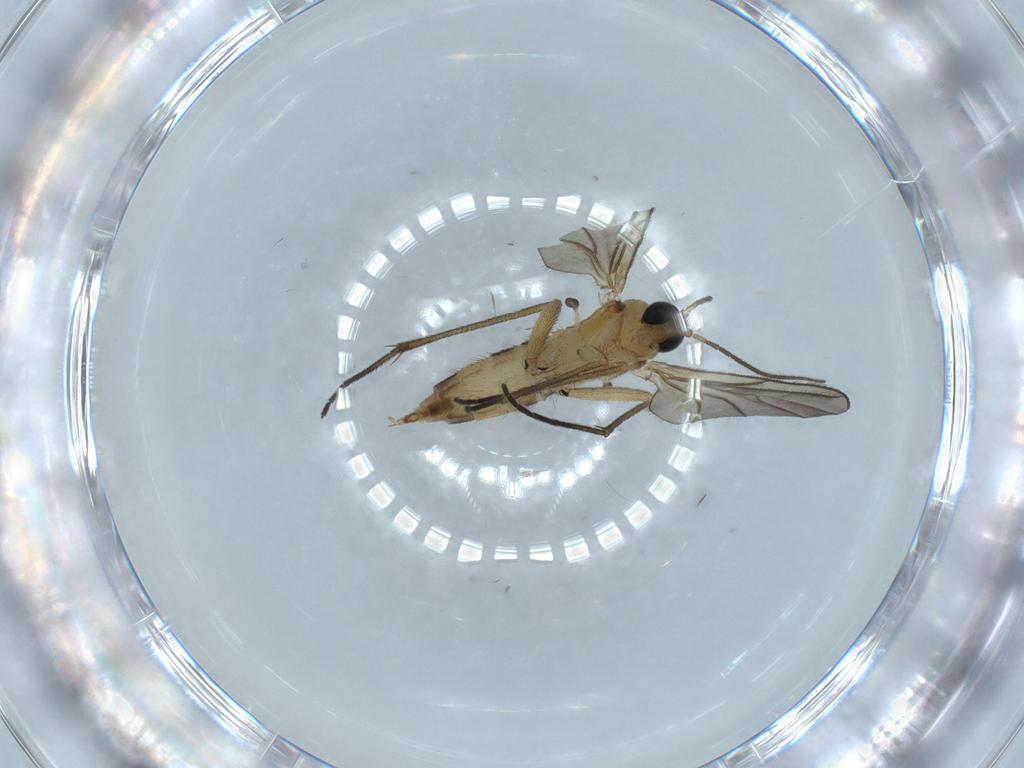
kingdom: Animalia
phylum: Arthropoda
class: Insecta
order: Diptera
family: Sciaridae
